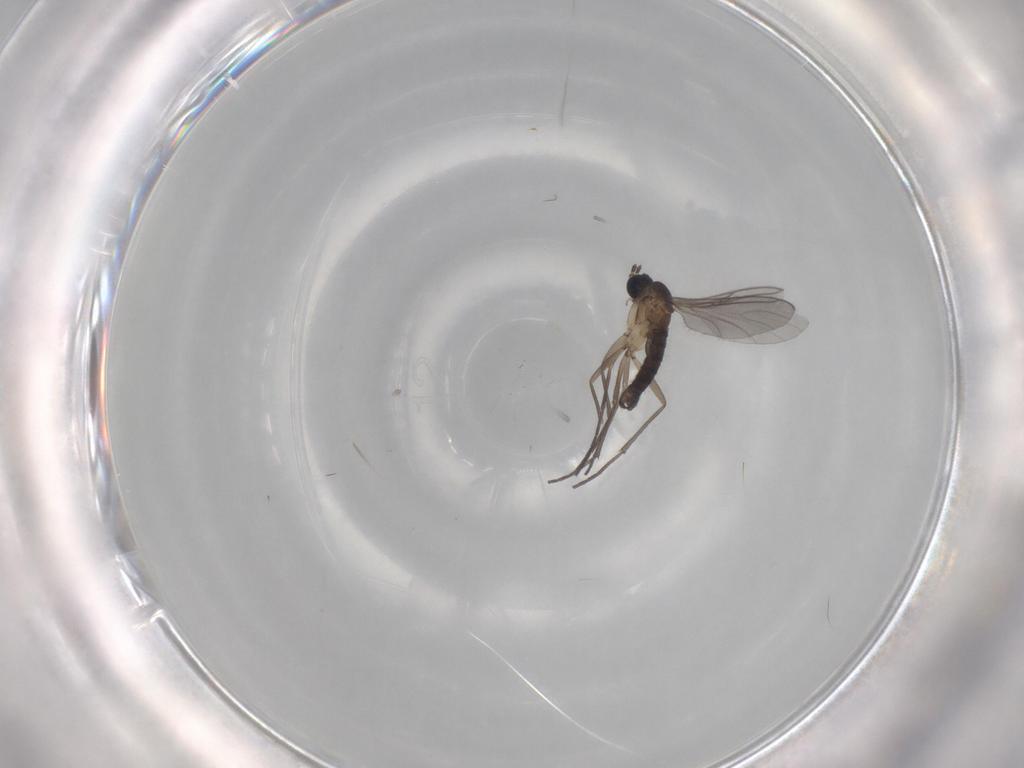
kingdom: Animalia
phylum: Arthropoda
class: Insecta
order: Diptera
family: Sciaridae
